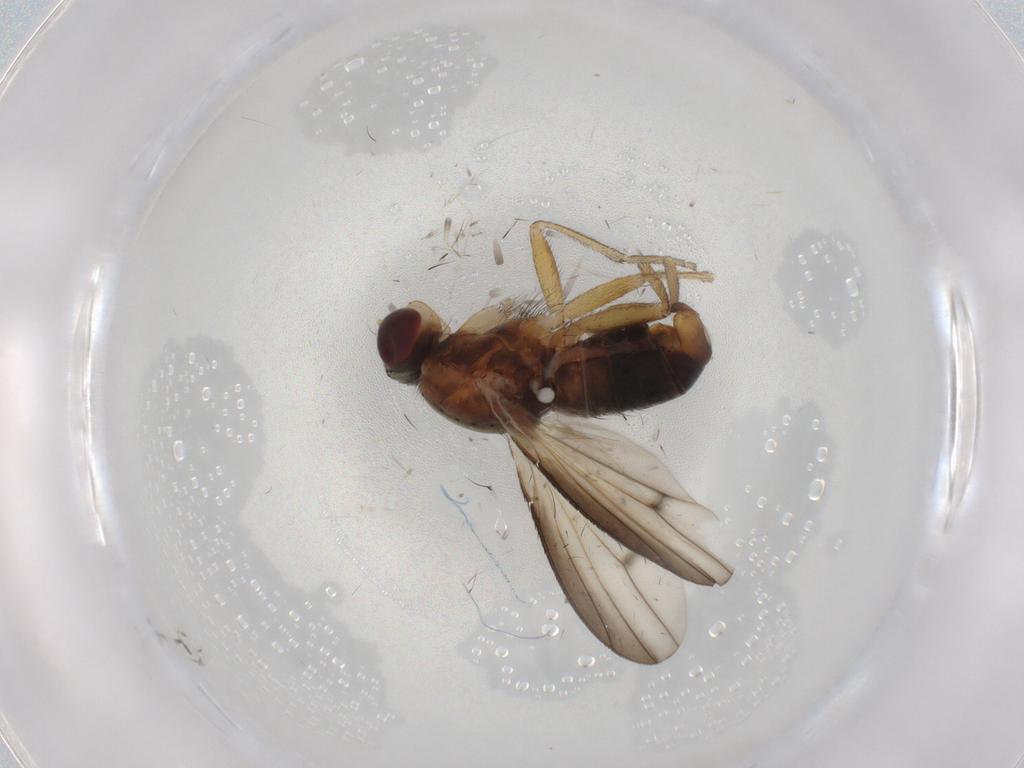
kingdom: Animalia
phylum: Arthropoda
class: Insecta
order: Diptera
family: Heleomyzidae
